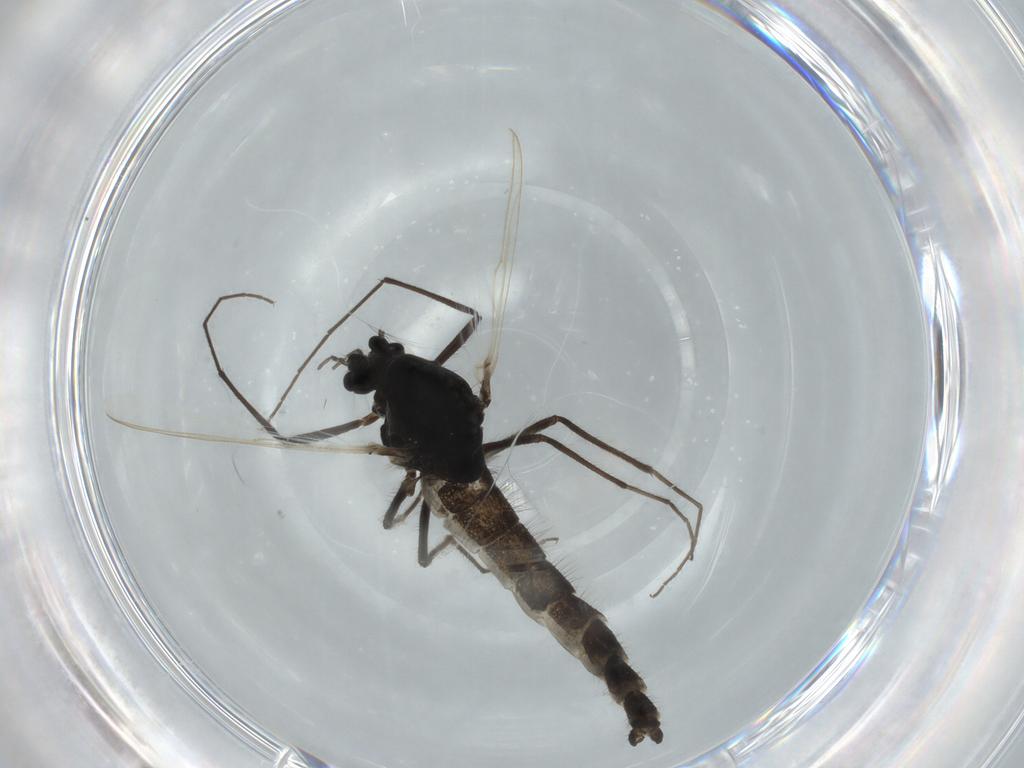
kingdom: Animalia
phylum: Arthropoda
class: Insecta
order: Diptera
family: Chironomidae
